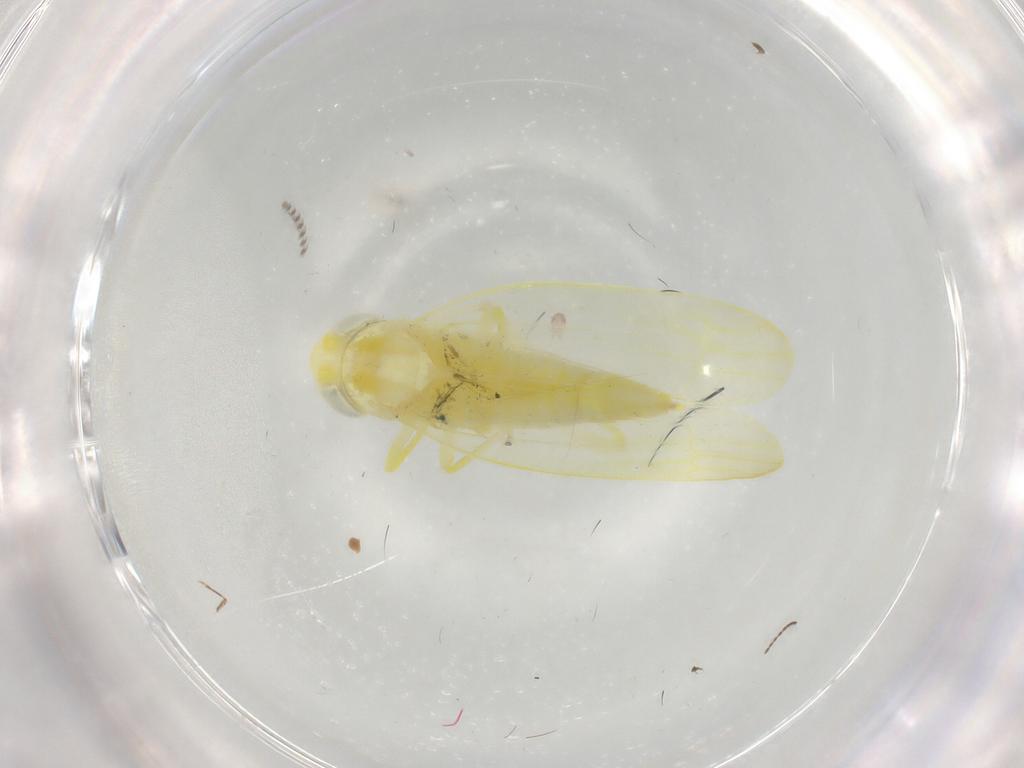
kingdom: Animalia
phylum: Arthropoda
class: Insecta
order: Hemiptera
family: Cicadellidae
